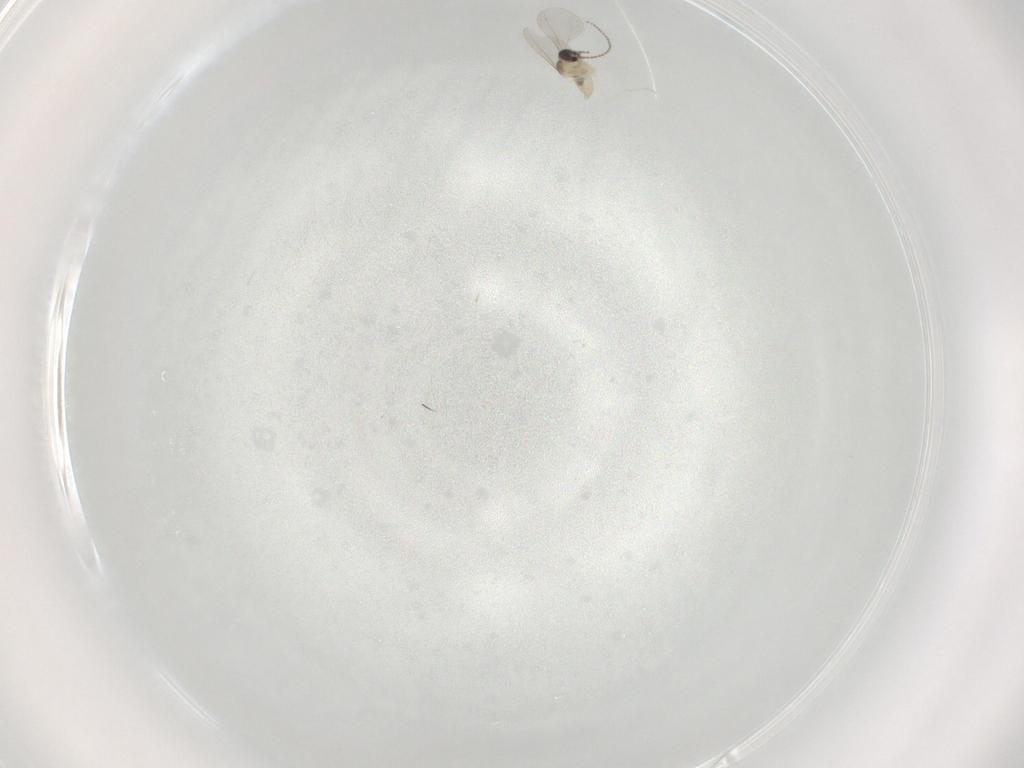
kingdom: Animalia
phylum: Arthropoda
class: Insecta
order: Diptera
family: Cecidomyiidae
